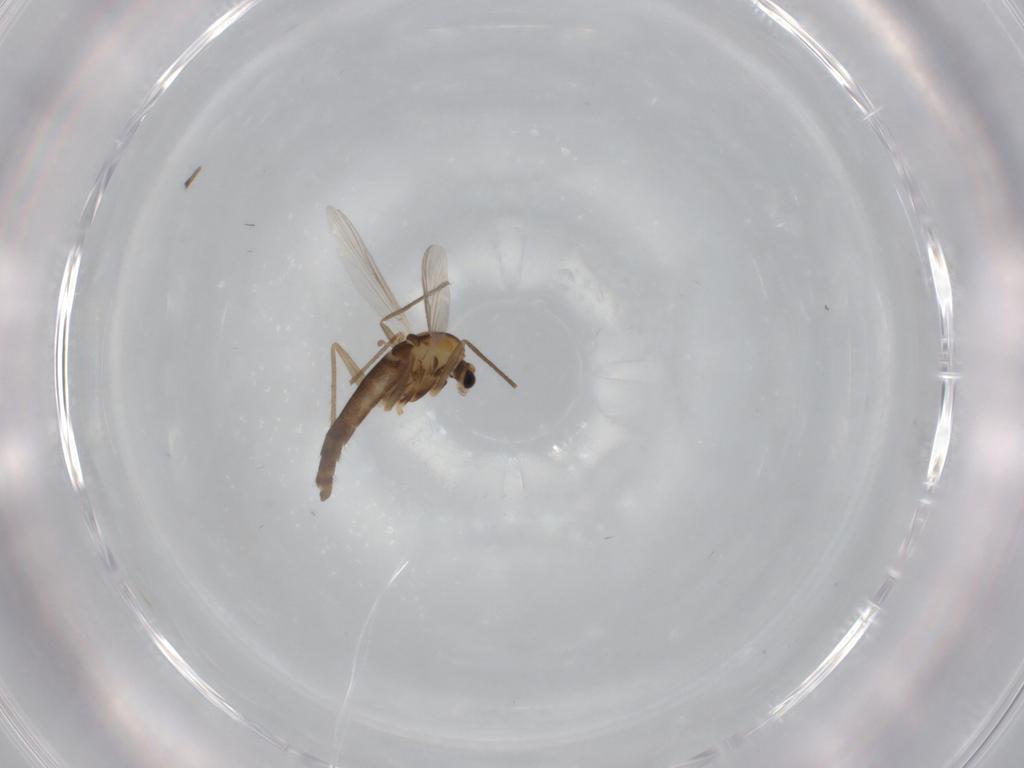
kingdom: Animalia
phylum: Arthropoda
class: Insecta
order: Diptera
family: Chironomidae
